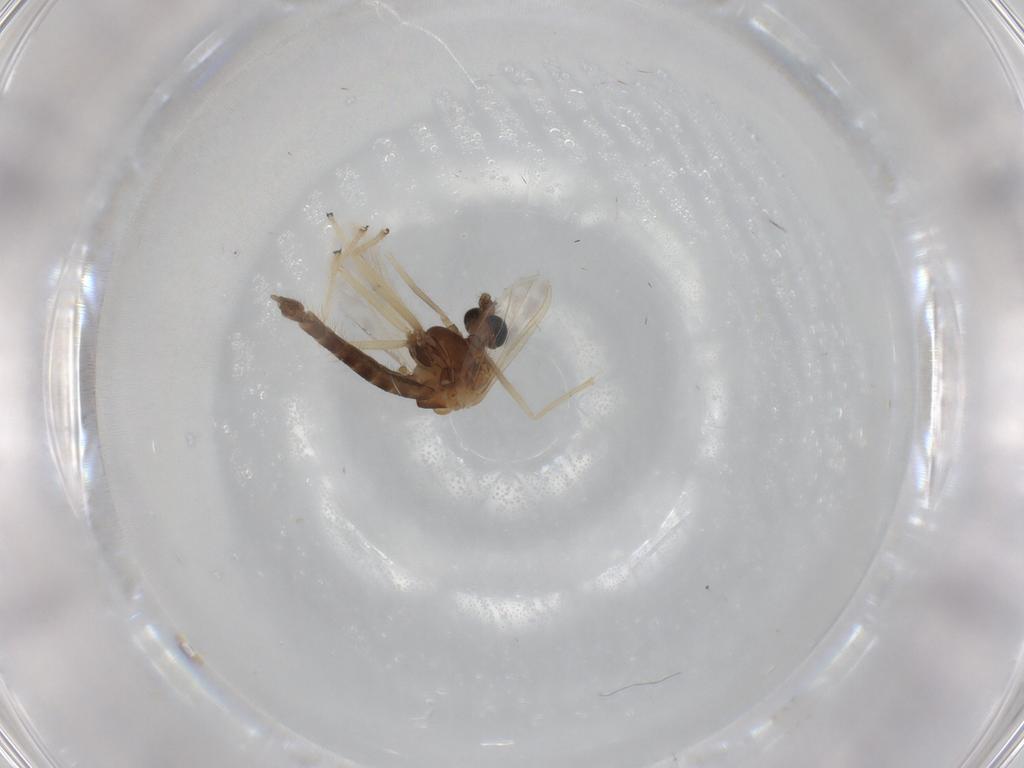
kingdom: Animalia
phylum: Arthropoda
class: Insecta
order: Diptera
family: Chironomidae
